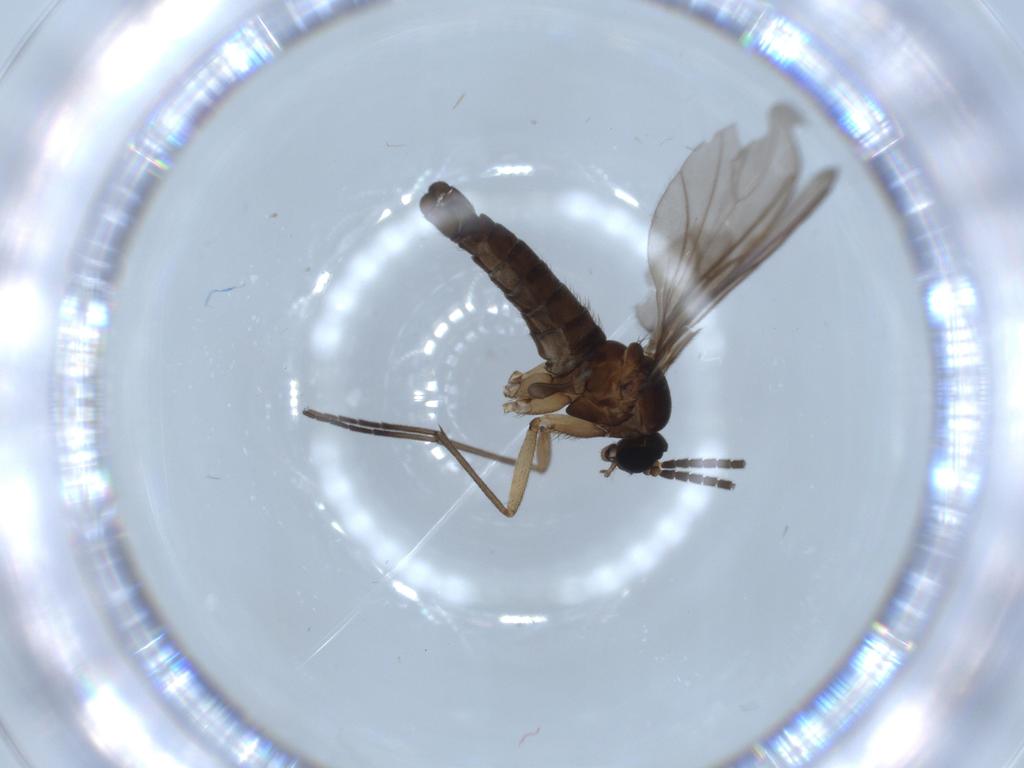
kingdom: Animalia
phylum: Arthropoda
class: Insecta
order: Diptera
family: Sciaridae
